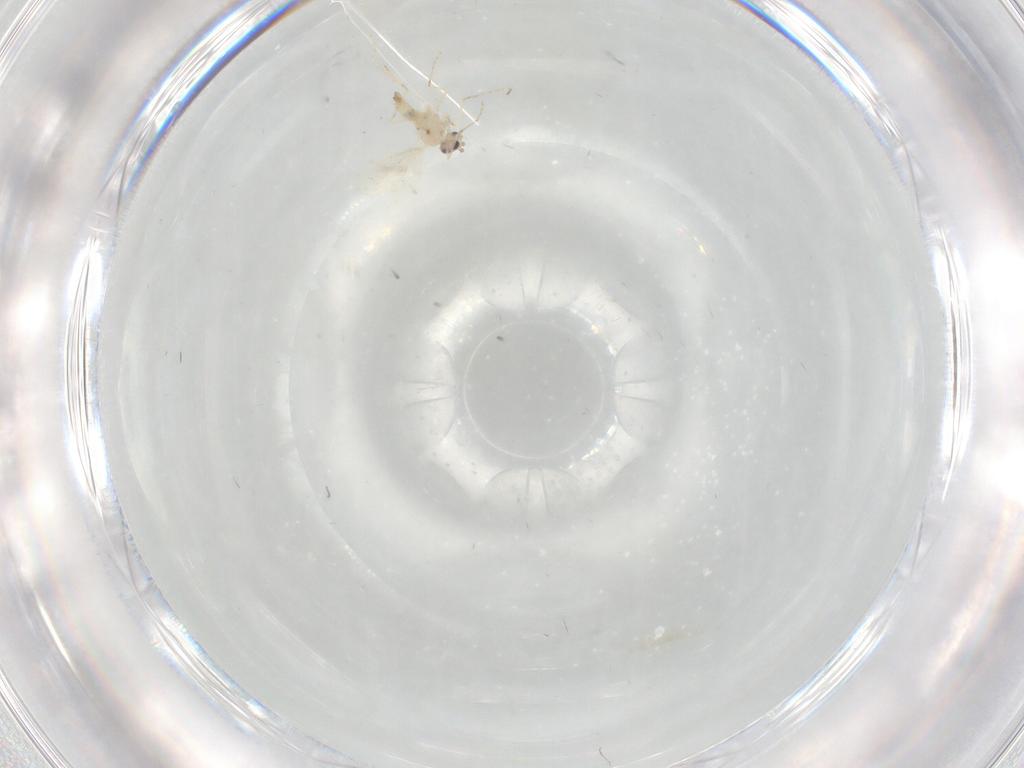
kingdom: Animalia
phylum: Arthropoda
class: Insecta
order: Diptera
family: Cecidomyiidae
